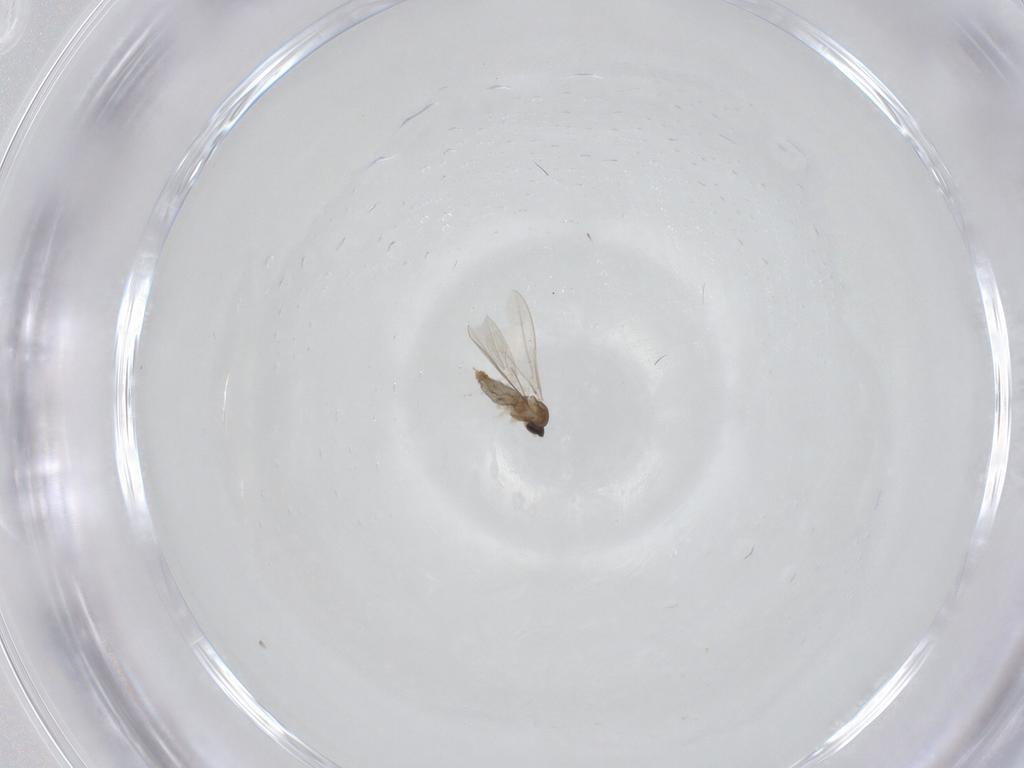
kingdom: Animalia
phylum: Arthropoda
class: Insecta
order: Diptera
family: Cecidomyiidae
